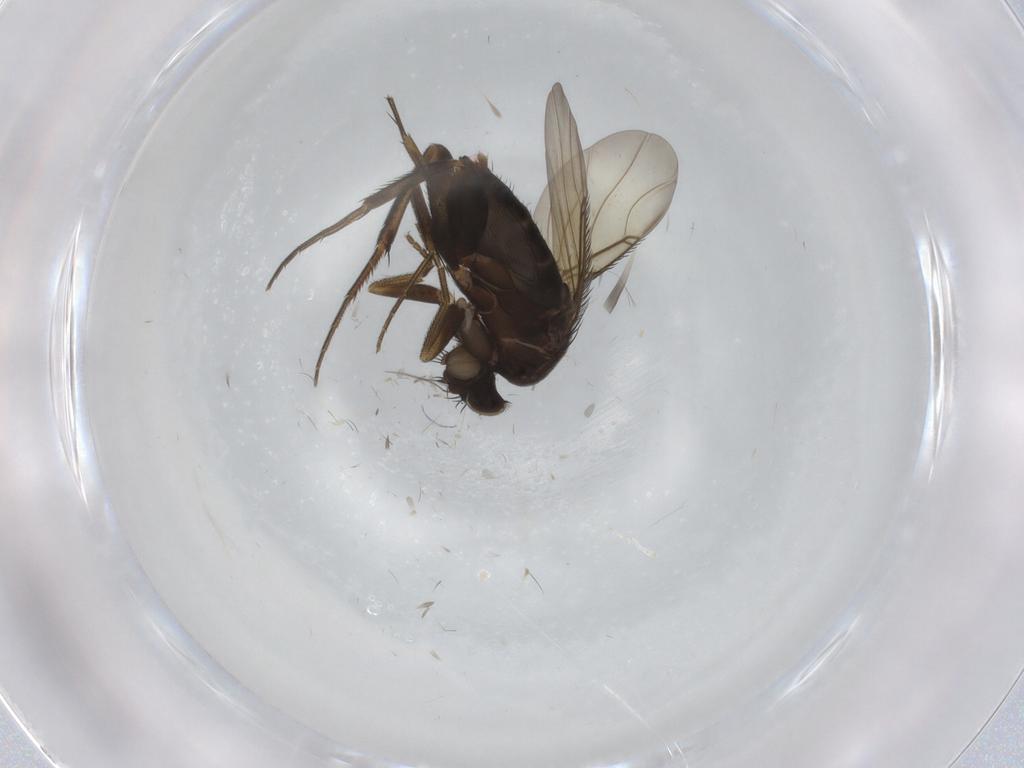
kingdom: Animalia
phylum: Arthropoda
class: Insecta
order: Diptera
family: Phoridae
